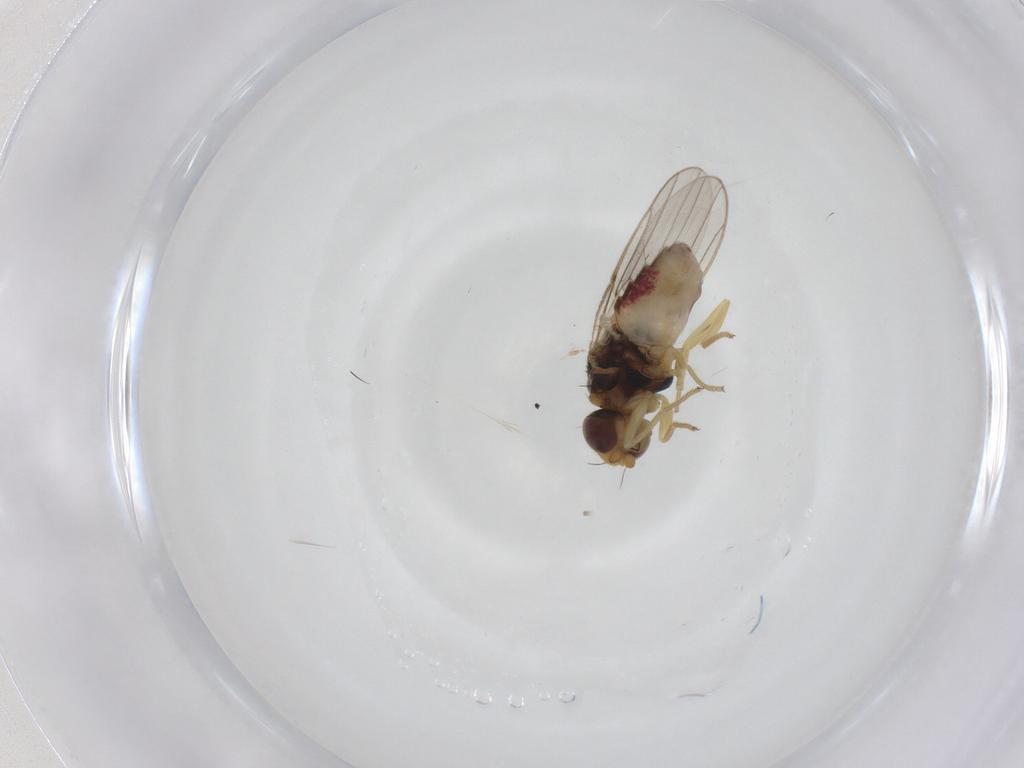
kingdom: Animalia
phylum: Arthropoda
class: Insecta
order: Diptera
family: Chloropidae
